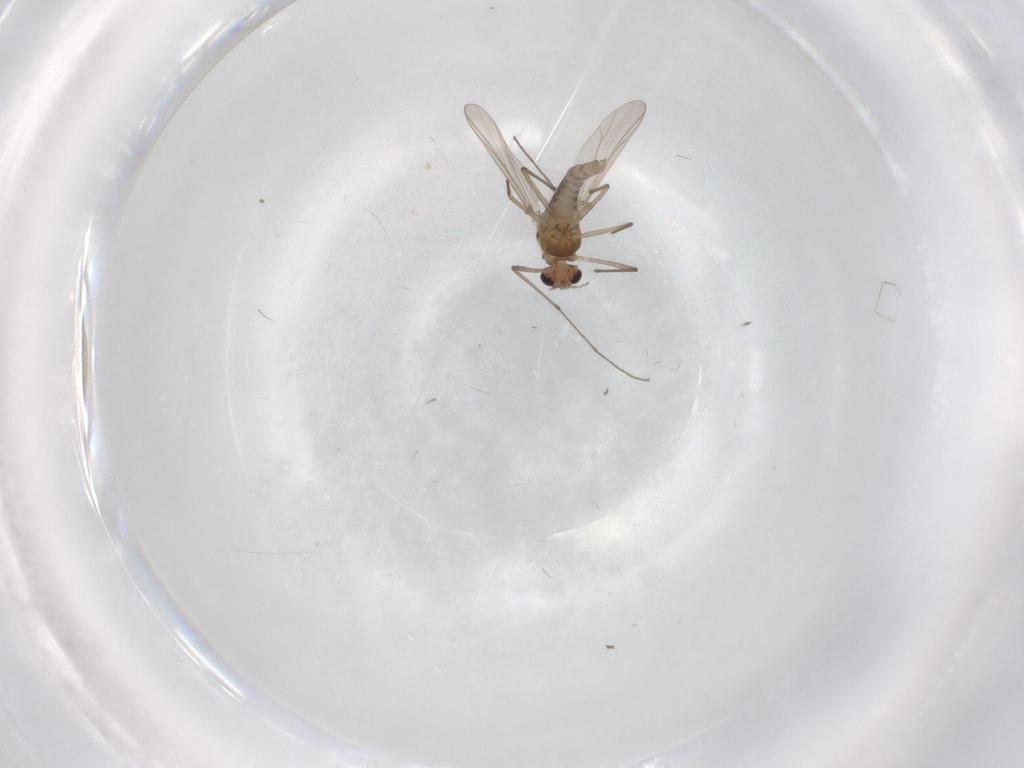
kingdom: Animalia
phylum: Arthropoda
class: Insecta
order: Diptera
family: Chironomidae
